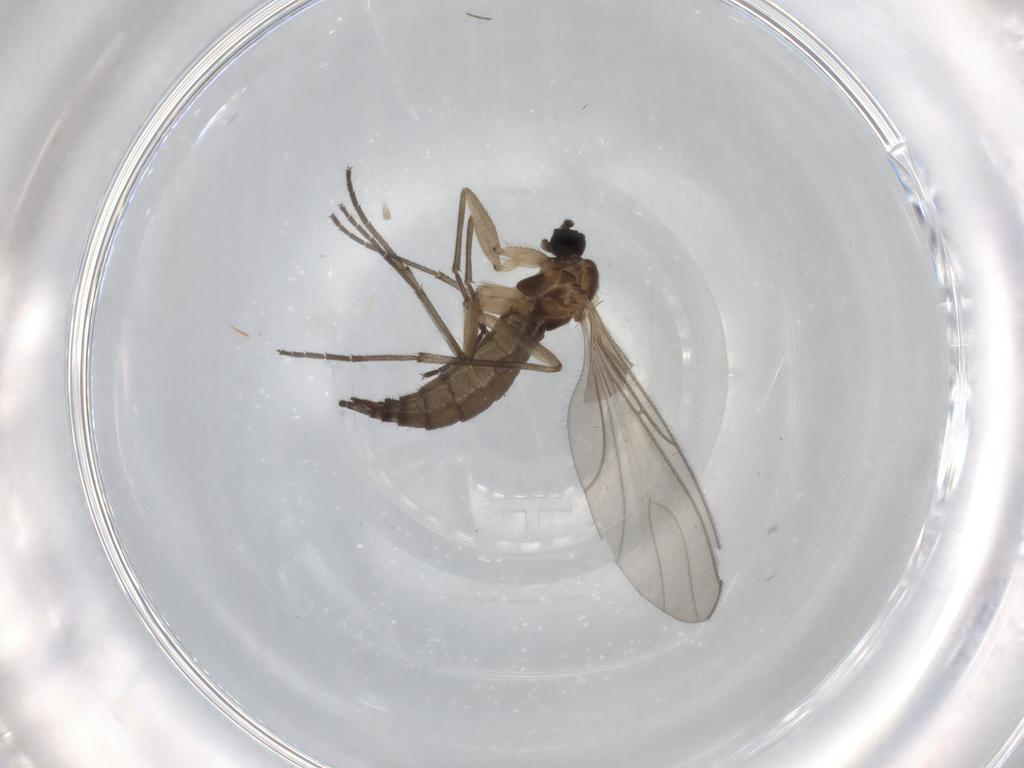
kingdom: Animalia
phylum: Arthropoda
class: Insecta
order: Diptera
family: Sciaridae
